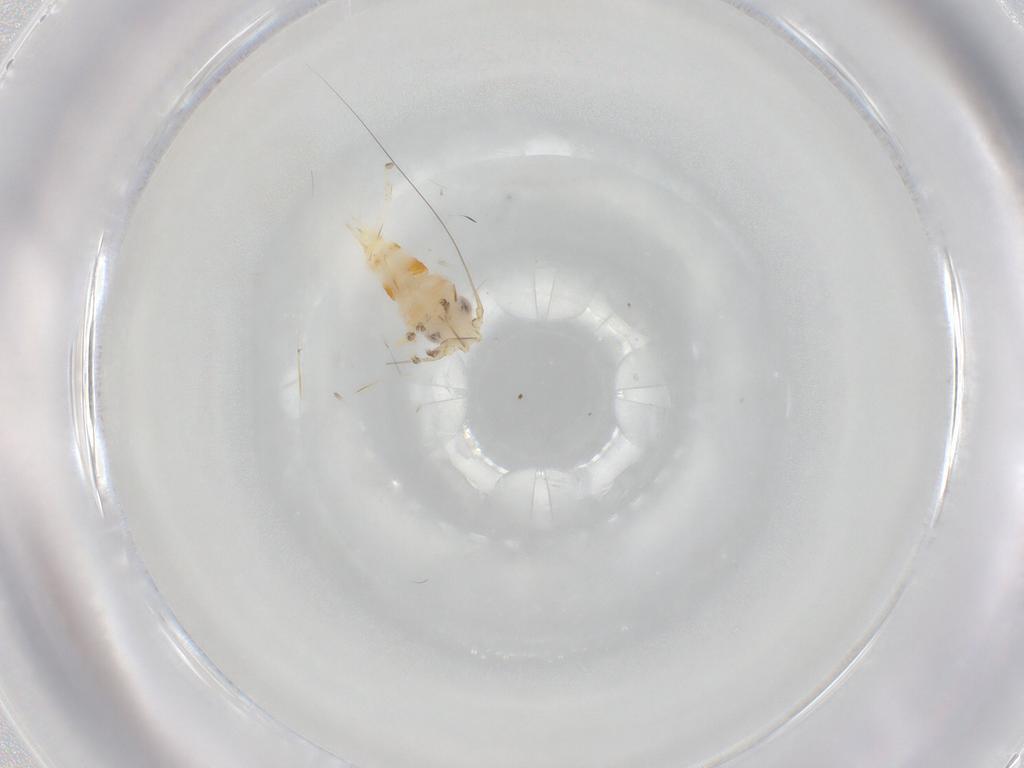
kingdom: Animalia
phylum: Arthropoda
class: Insecta
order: Hemiptera
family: Cicadellidae
